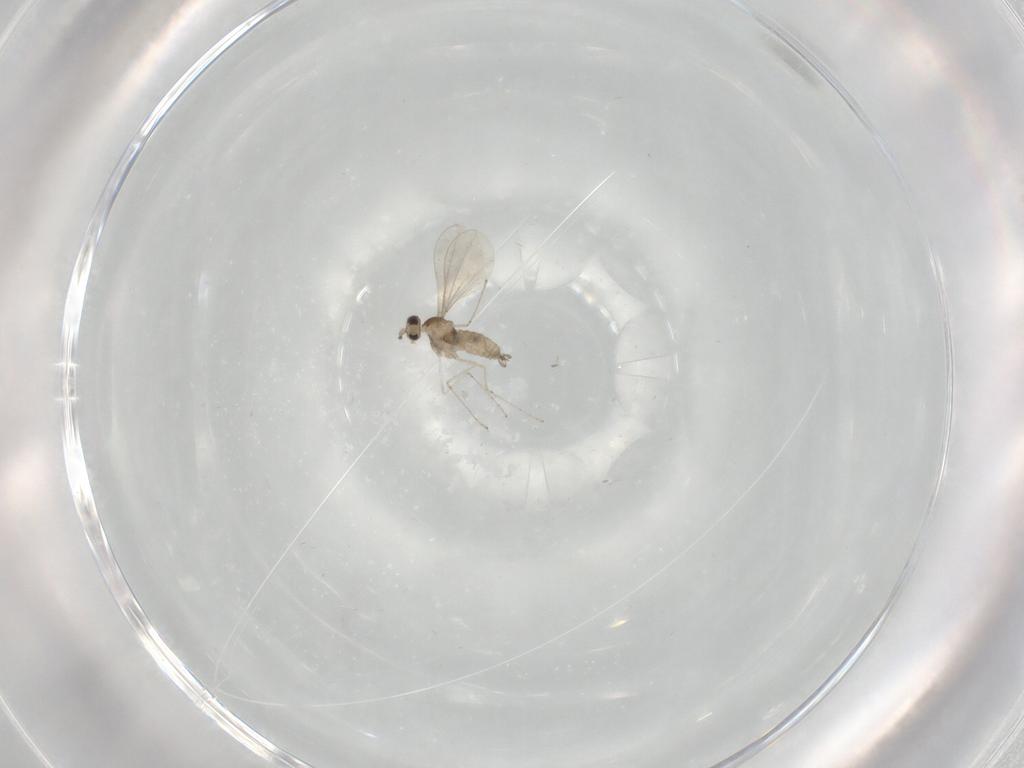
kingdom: Animalia
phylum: Arthropoda
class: Insecta
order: Diptera
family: Cecidomyiidae
